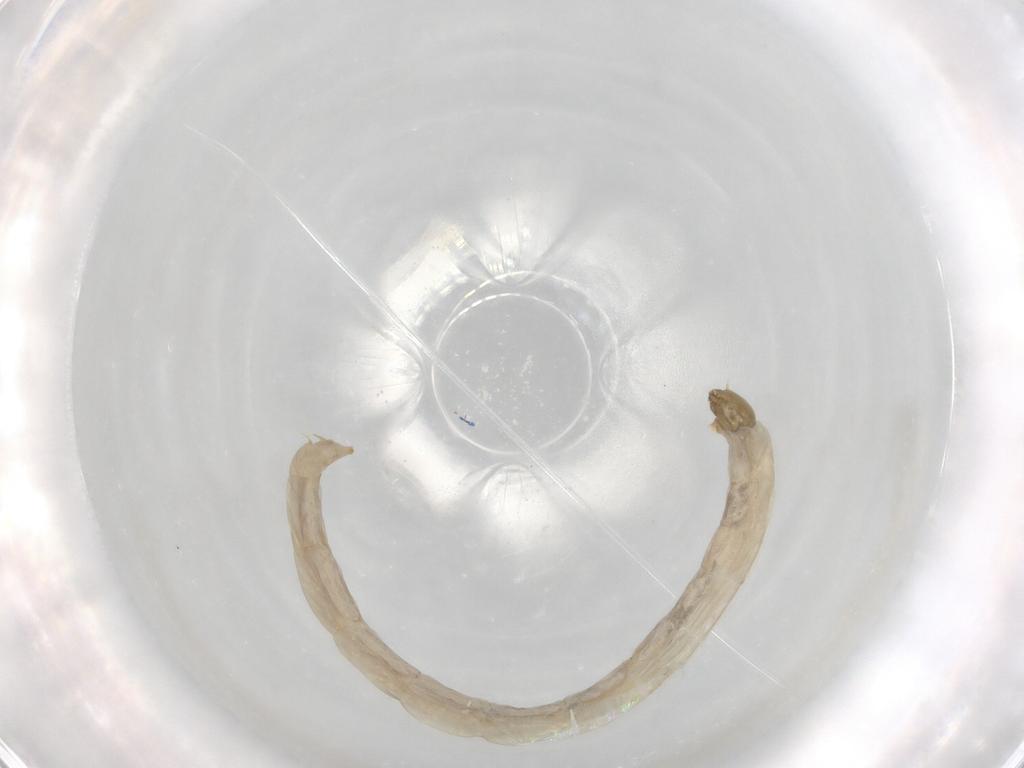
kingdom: Animalia
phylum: Arthropoda
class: Insecta
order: Diptera
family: Chironomidae
